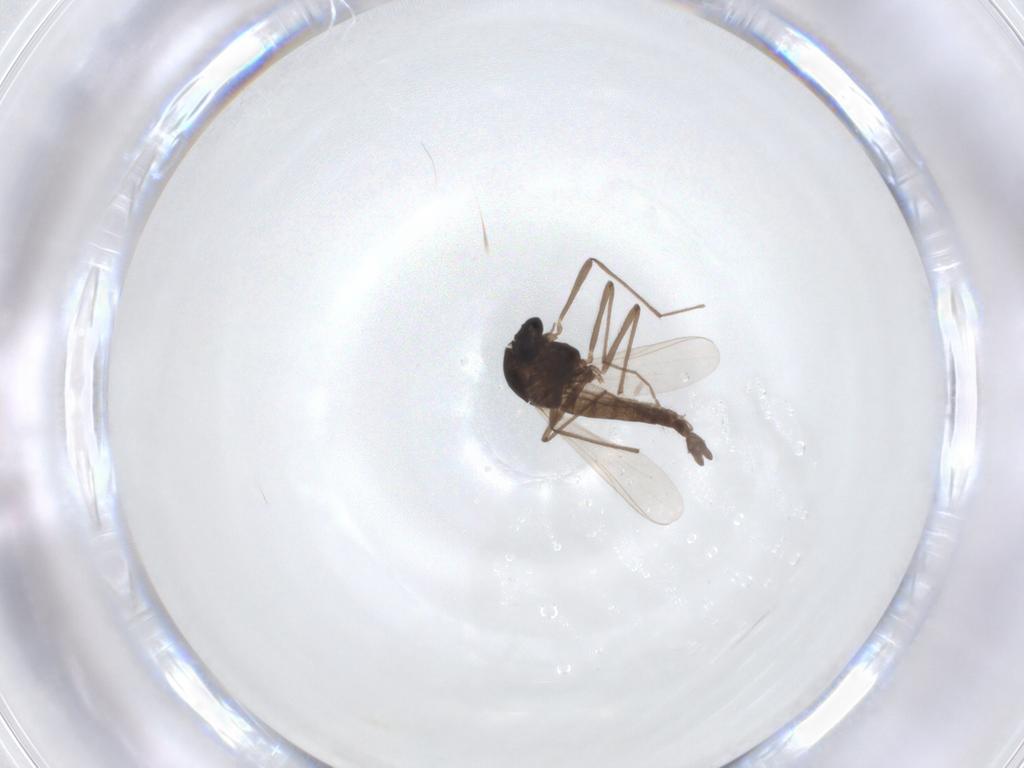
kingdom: Animalia
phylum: Arthropoda
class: Insecta
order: Diptera
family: Chironomidae
